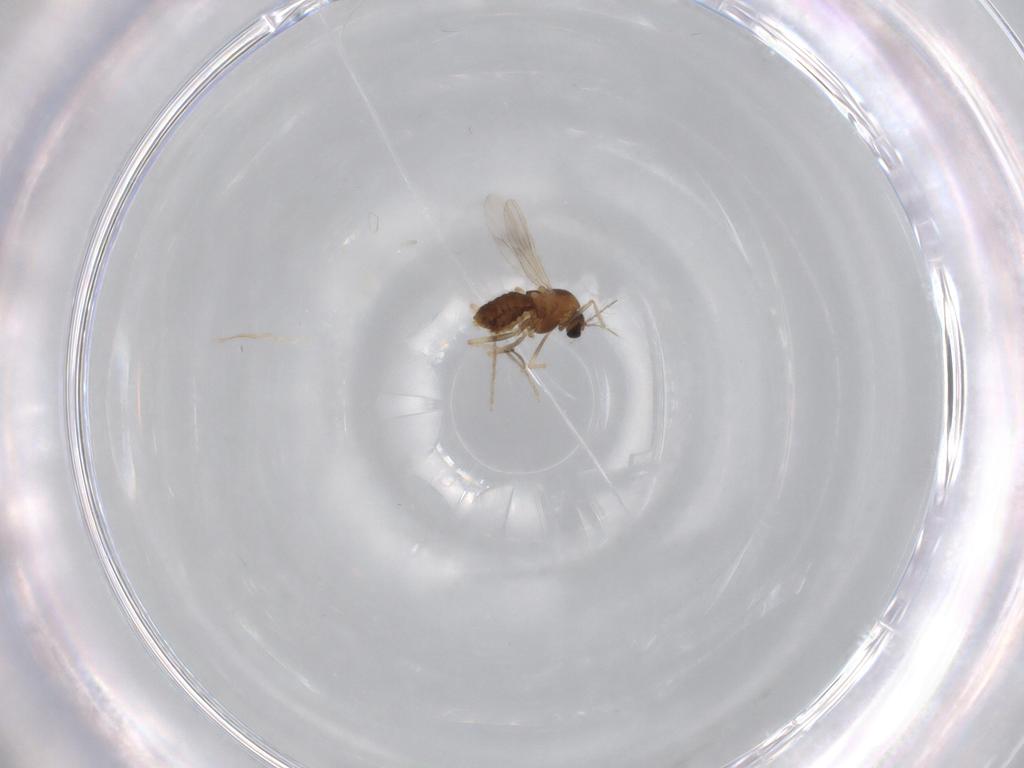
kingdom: Animalia
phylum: Arthropoda
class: Insecta
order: Diptera
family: Chironomidae
